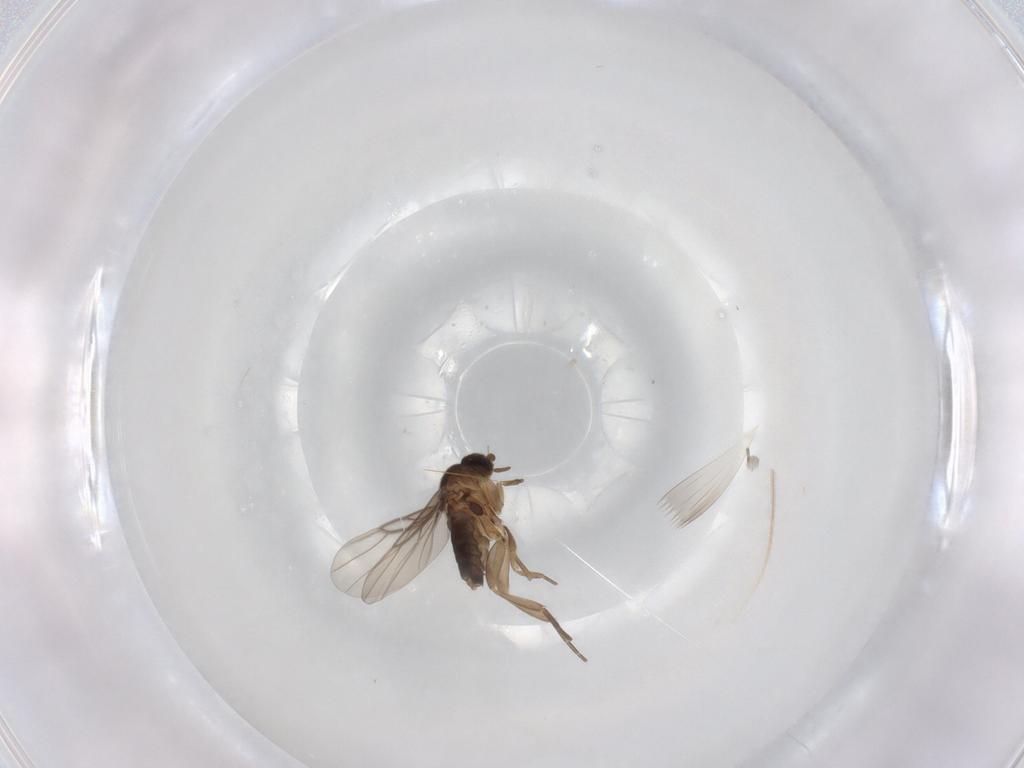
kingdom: Animalia
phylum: Arthropoda
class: Insecta
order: Diptera
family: Phoridae
